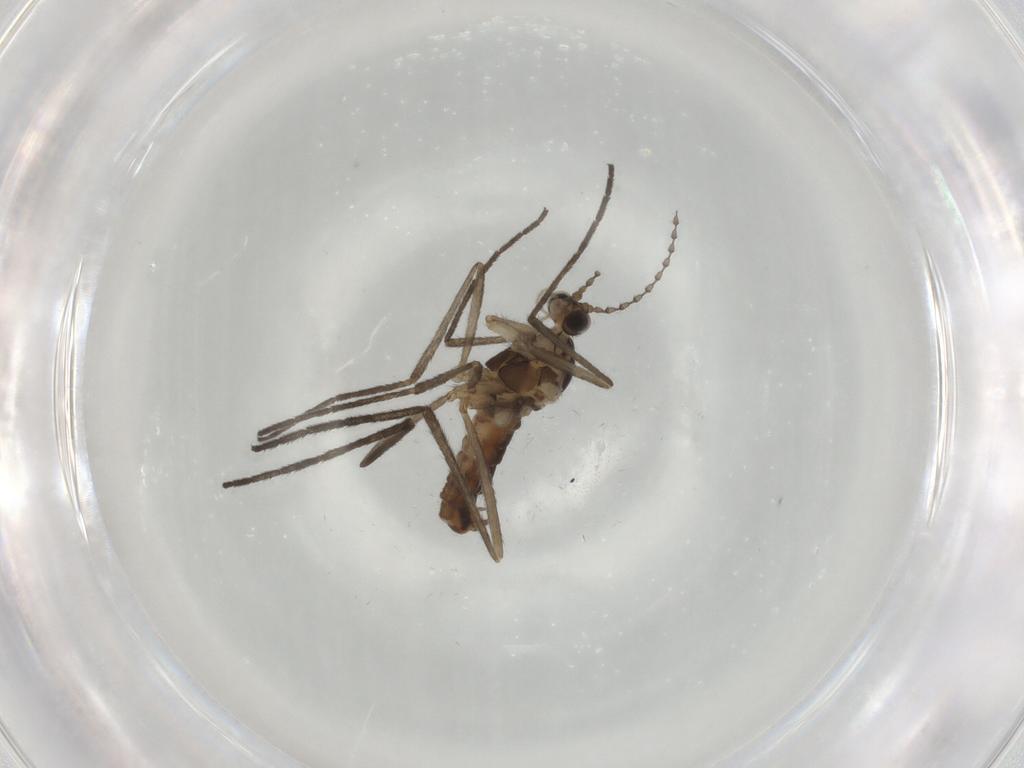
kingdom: Animalia
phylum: Arthropoda
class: Insecta
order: Diptera
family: Cecidomyiidae
